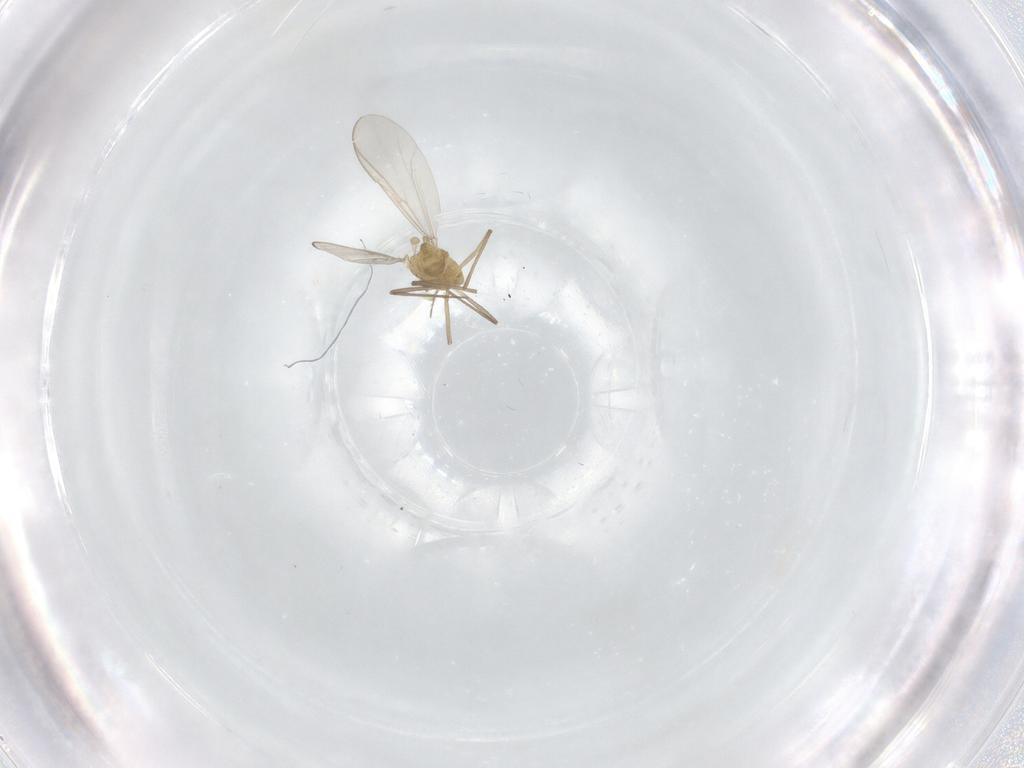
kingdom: Animalia
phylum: Arthropoda
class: Insecta
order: Diptera
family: Chironomidae
